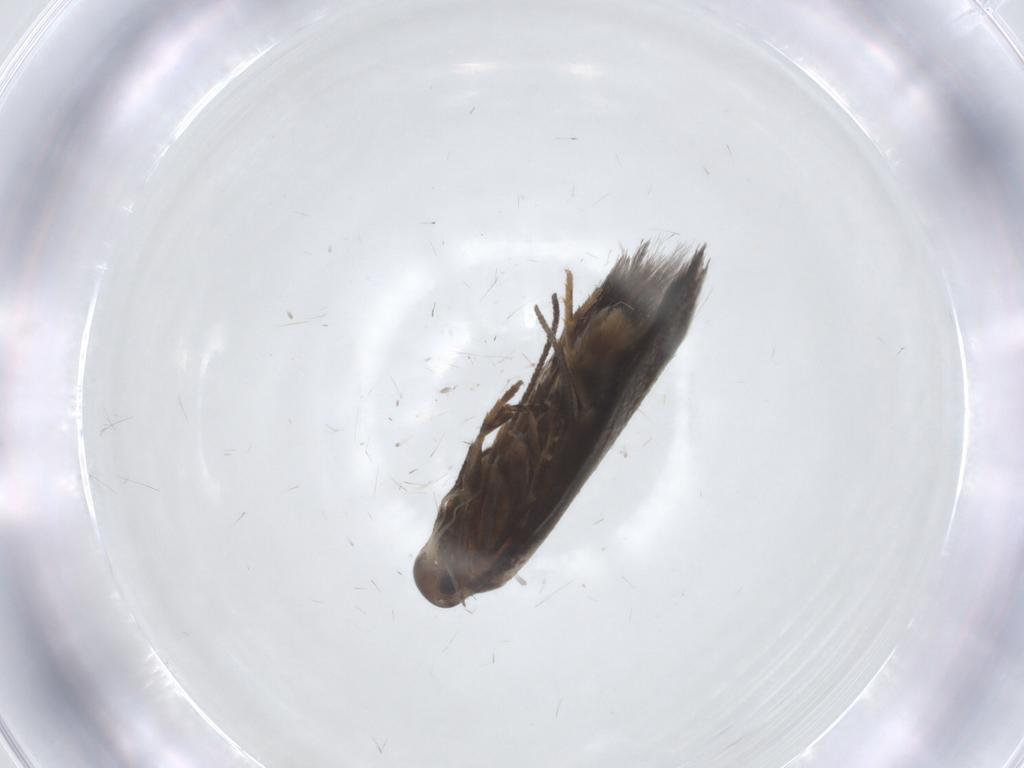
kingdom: Animalia
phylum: Arthropoda
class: Insecta
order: Lepidoptera
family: Elachistidae
